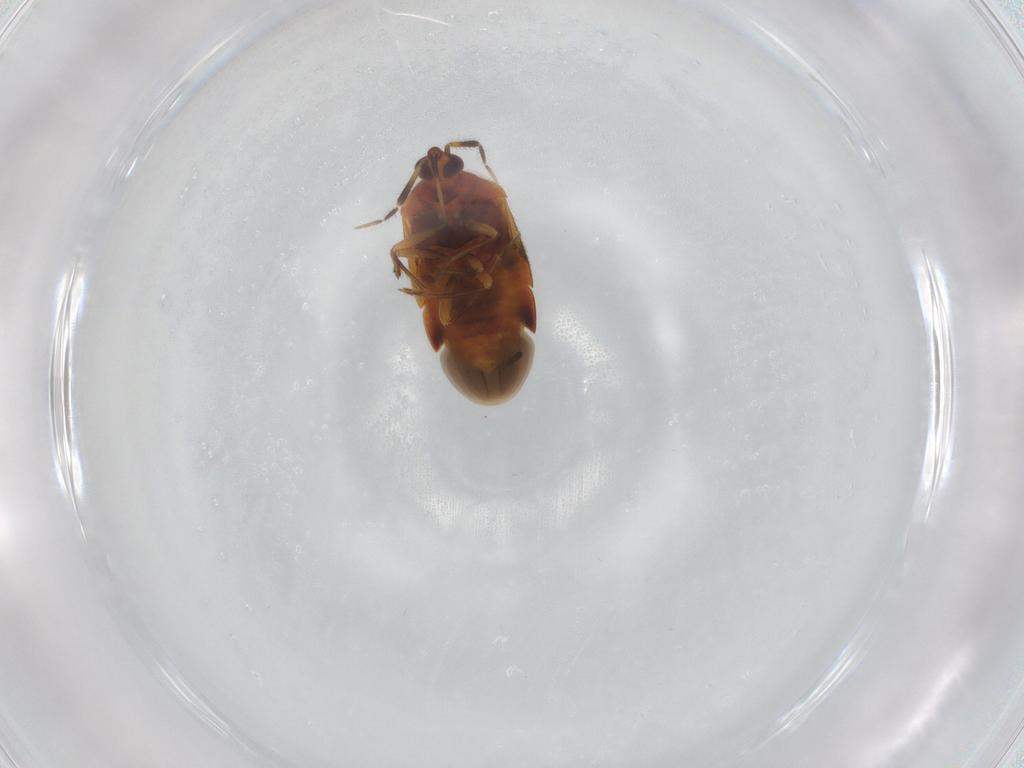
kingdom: Animalia
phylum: Arthropoda
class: Insecta
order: Hemiptera
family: Anthocoridae
